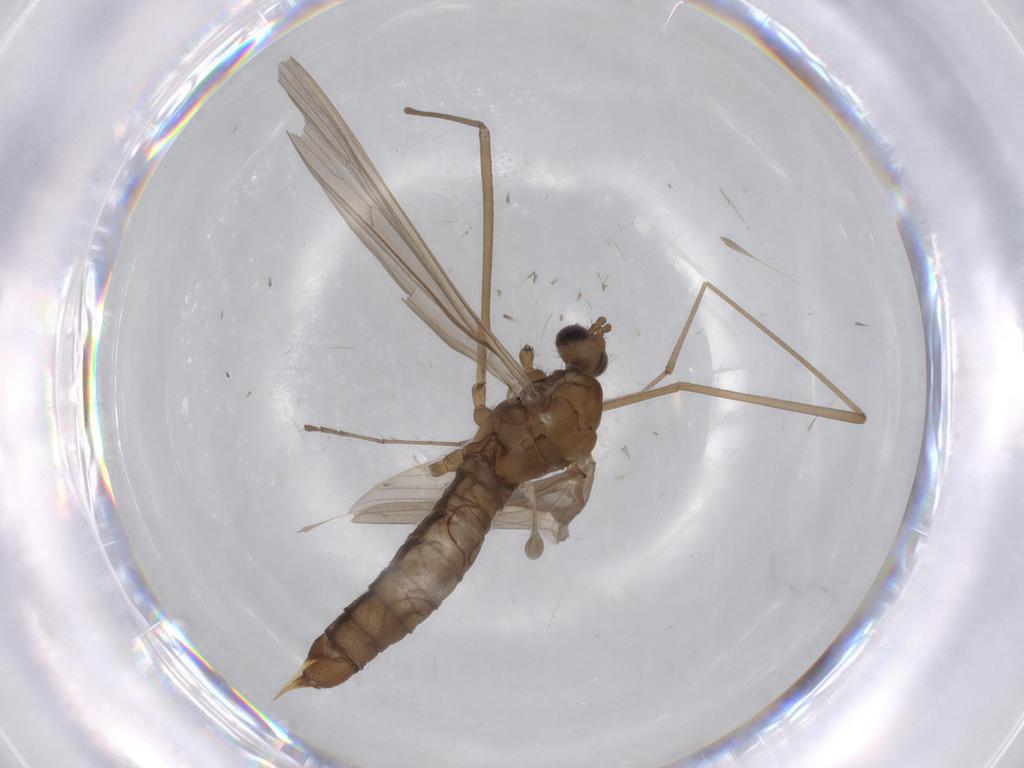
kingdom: Animalia
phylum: Arthropoda
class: Insecta
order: Diptera
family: Limoniidae
